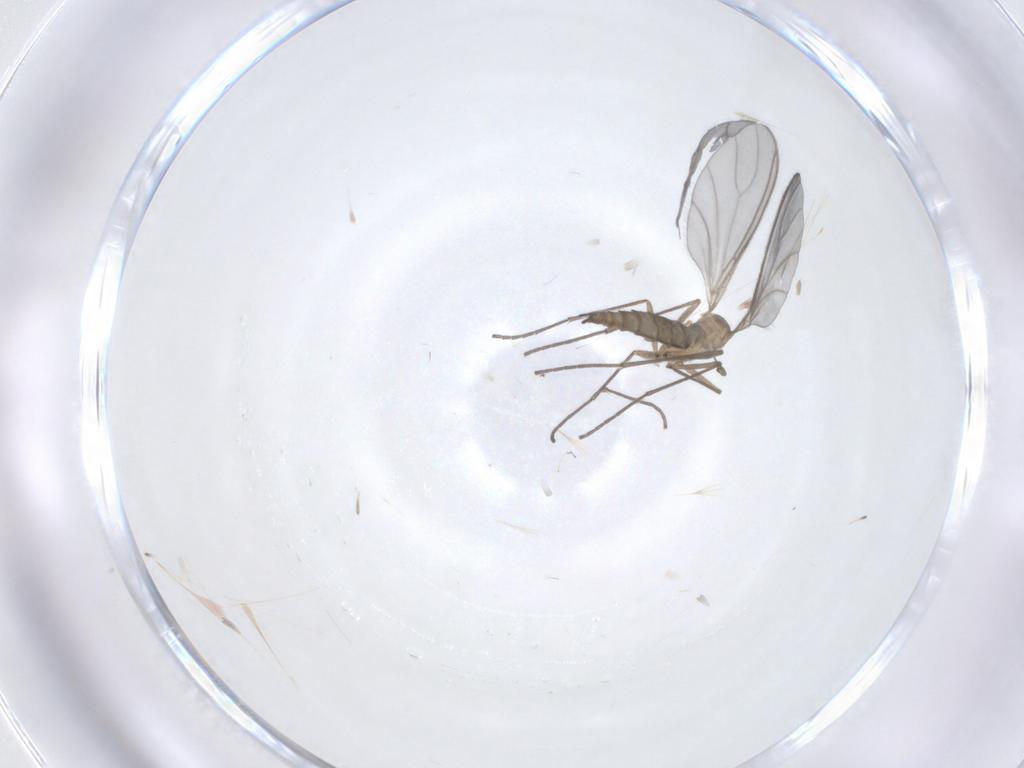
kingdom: Animalia
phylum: Arthropoda
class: Insecta
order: Diptera
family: Sciaridae
